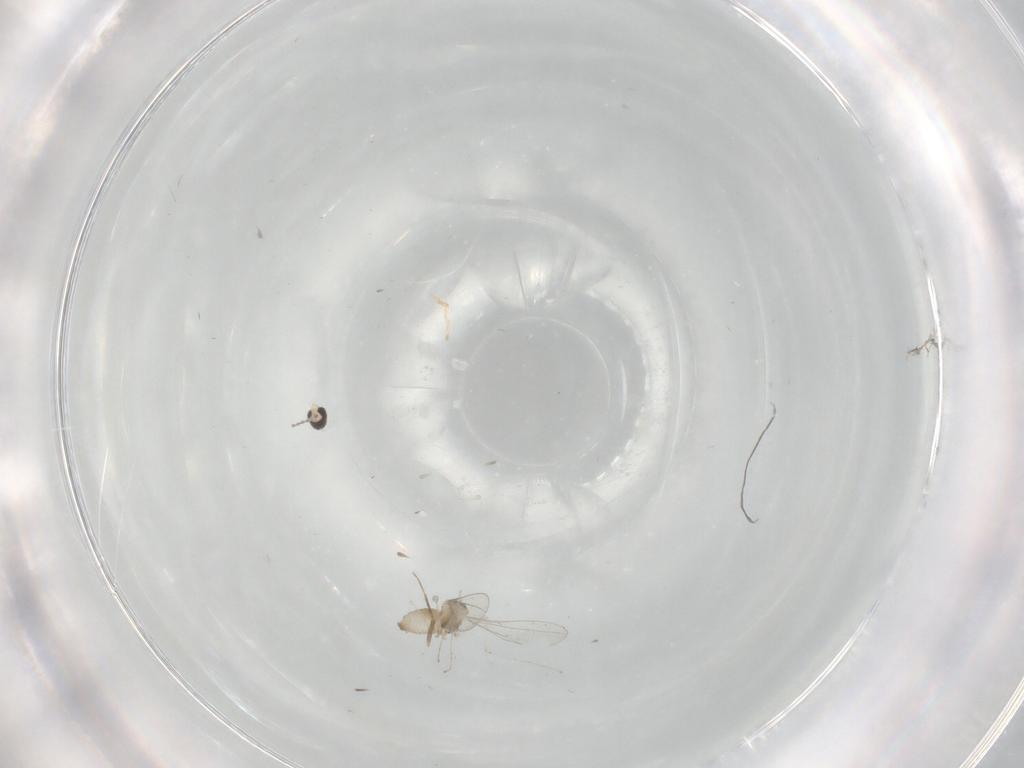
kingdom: Animalia
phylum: Arthropoda
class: Insecta
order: Diptera
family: Cecidomyiidae
